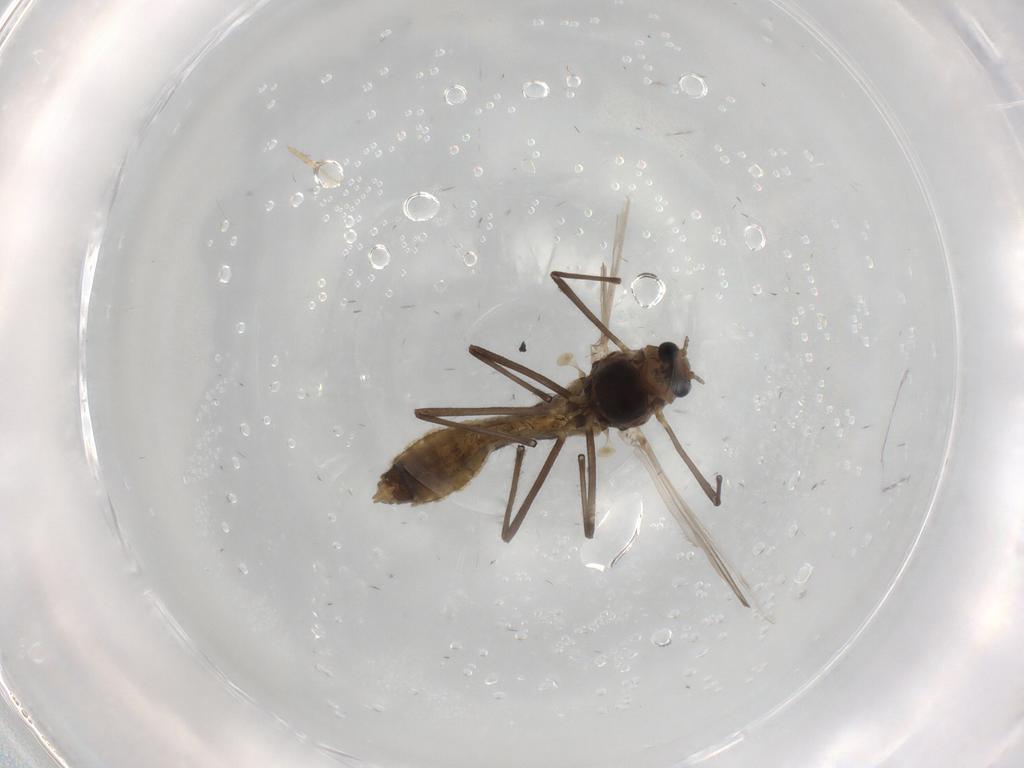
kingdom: Animalia
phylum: Arthropoda
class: Insecta
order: Diptera
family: Chironomidae
